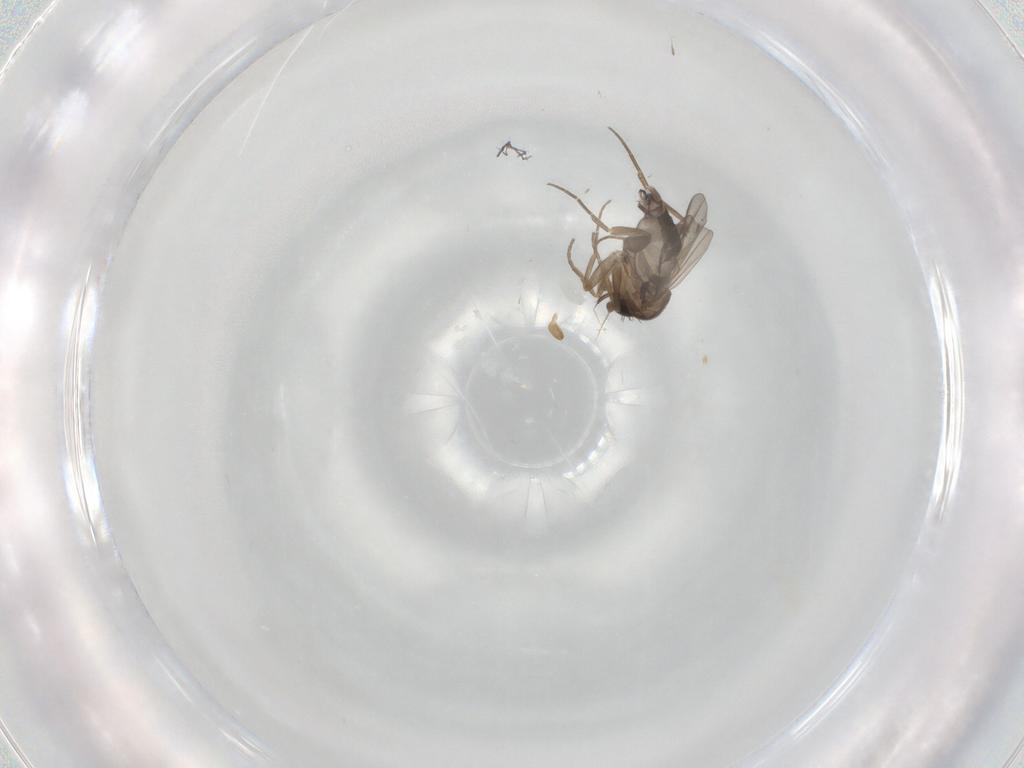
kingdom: Animalia
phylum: Arthropoda
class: Insecta
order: Diptera
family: Phoridae
